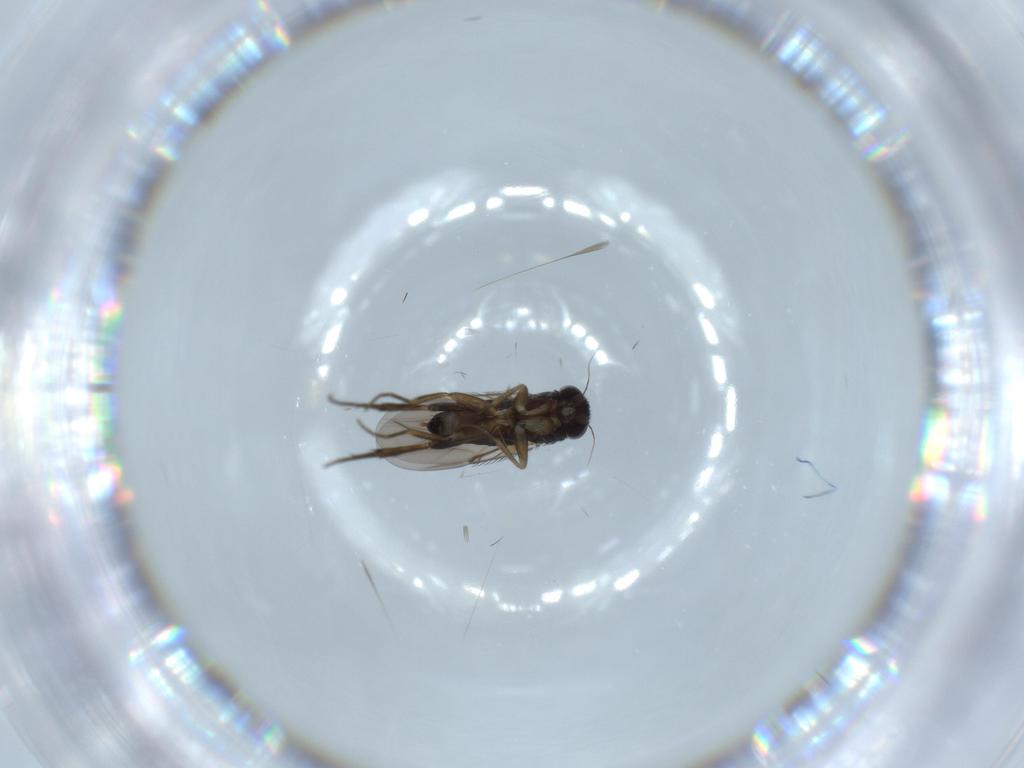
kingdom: Animalia
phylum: Arthropoda
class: Insecta
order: Diptera
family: Phoridae
